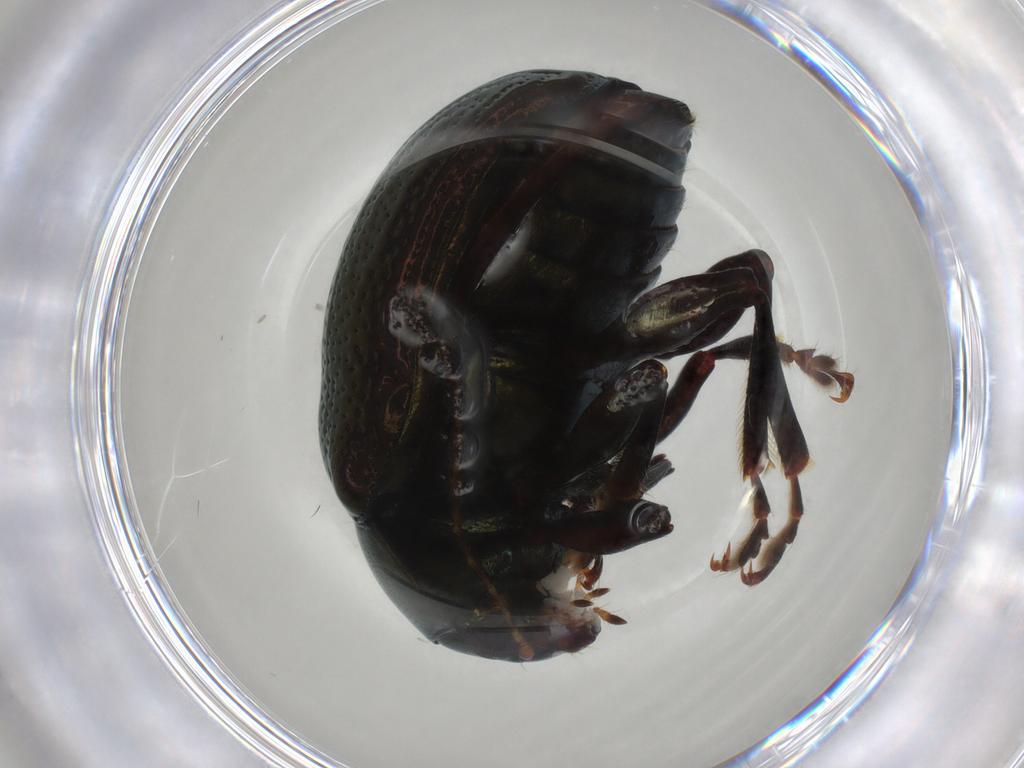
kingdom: Animalia
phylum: Arthropoda
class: Insecta
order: Coleoptera
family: Chrysomelidae
